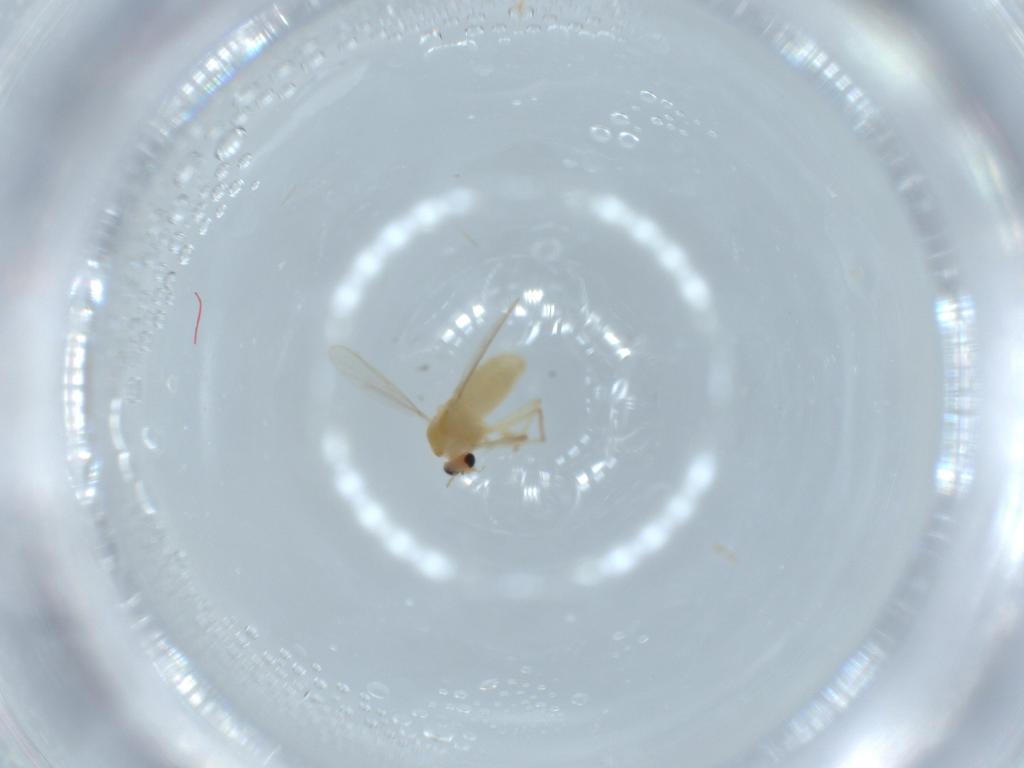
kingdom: Animalia
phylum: Arthropoda
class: Insecta
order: Diptera
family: Chironomidae
